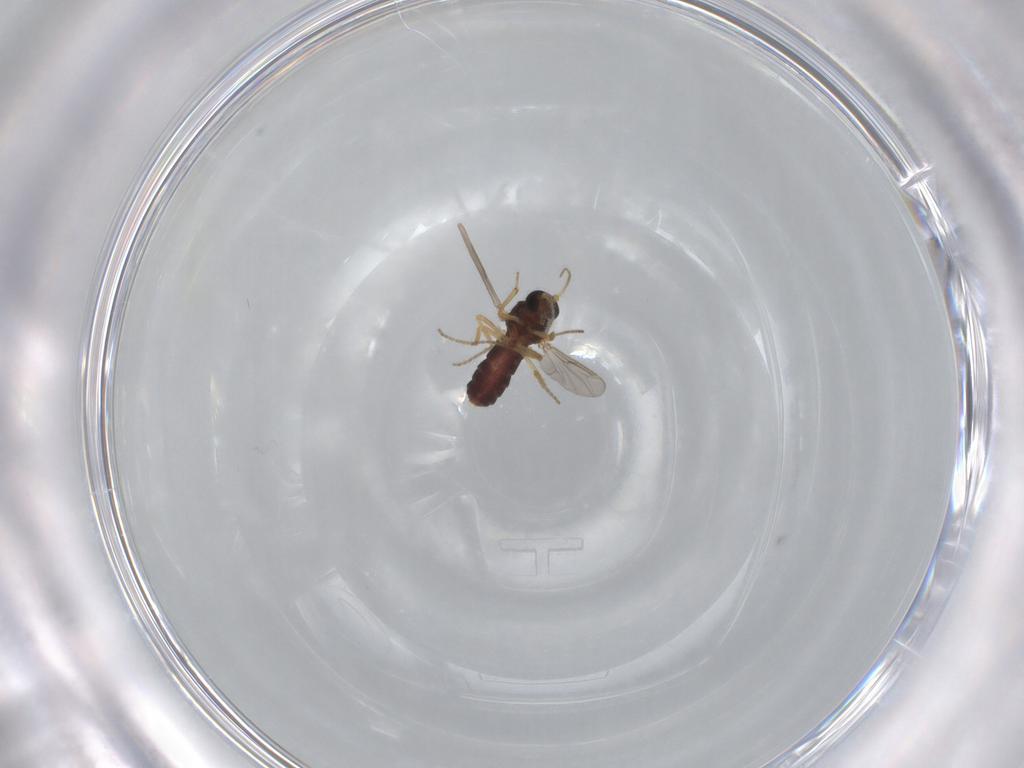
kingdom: Animalia
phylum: Arthropoda
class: Insecta
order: Diptera
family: Ceratopogonidae
